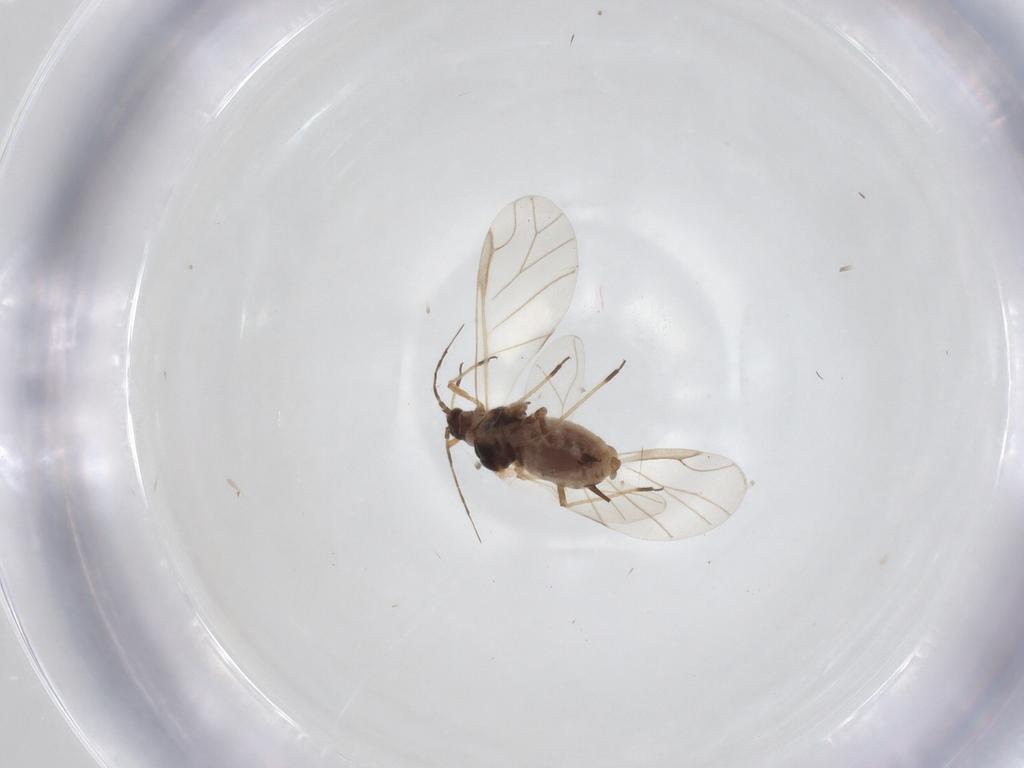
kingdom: Animalia
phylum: Arthropoda
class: Insecta
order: Hemiptera
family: Aphididae
